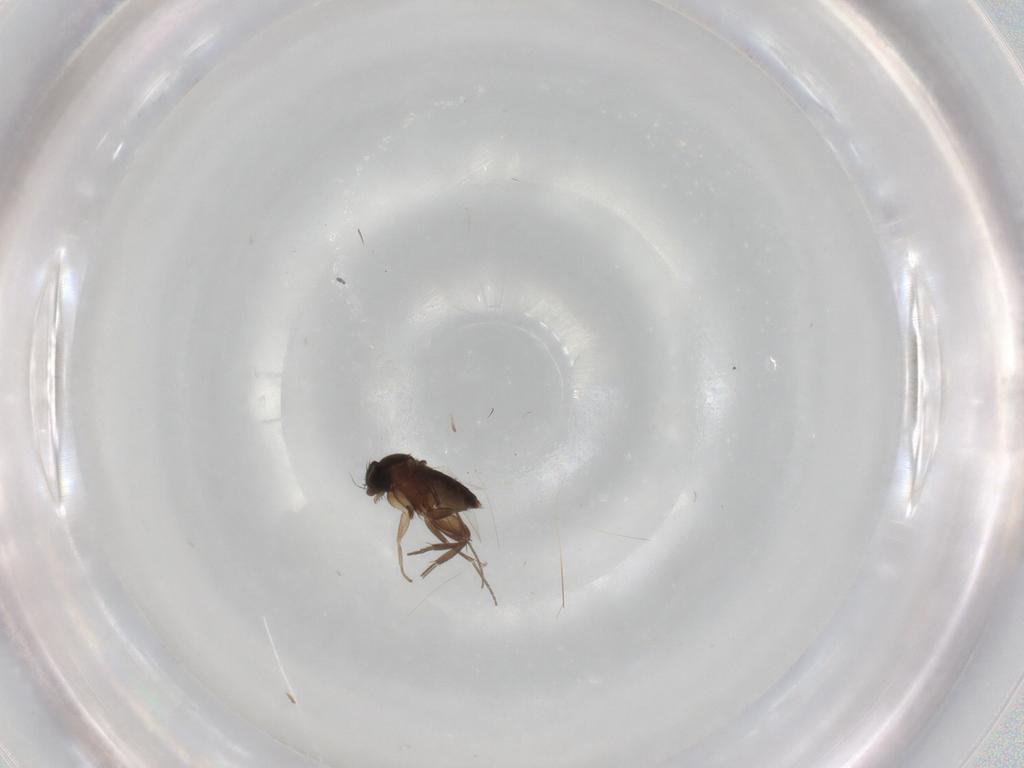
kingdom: Animalia
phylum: Arthropoda
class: Insecta
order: Diptera
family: Phoridae
